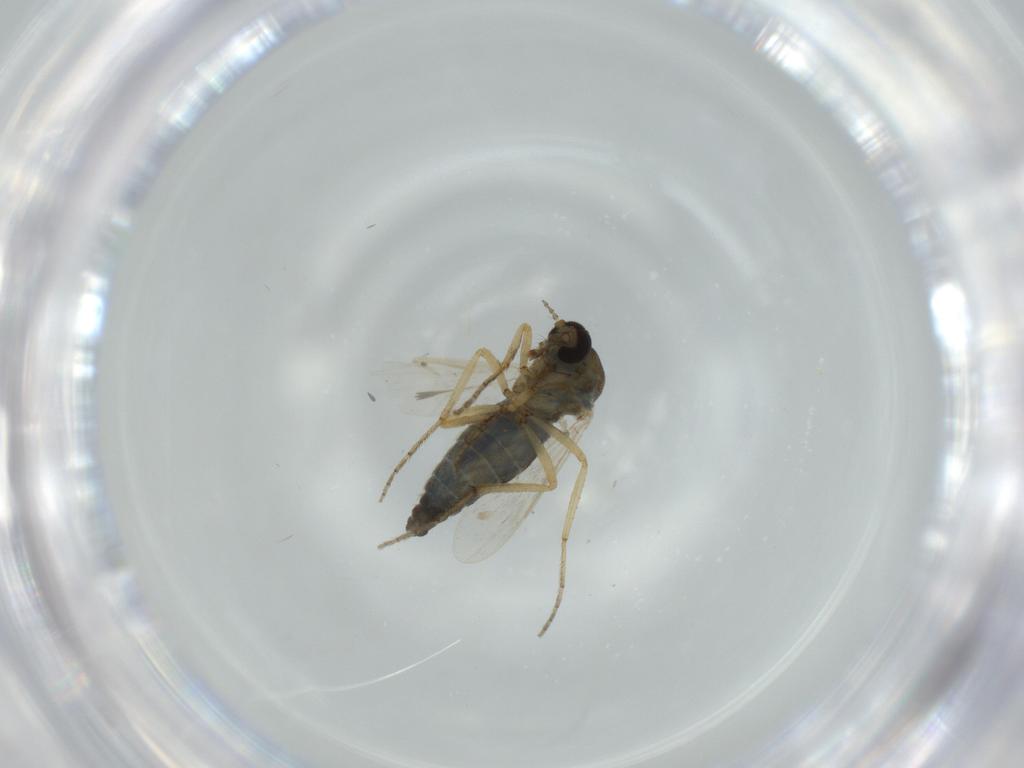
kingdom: Animalia
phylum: Arthropoda
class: Insecta
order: Diptera
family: Ceratopogonidae
